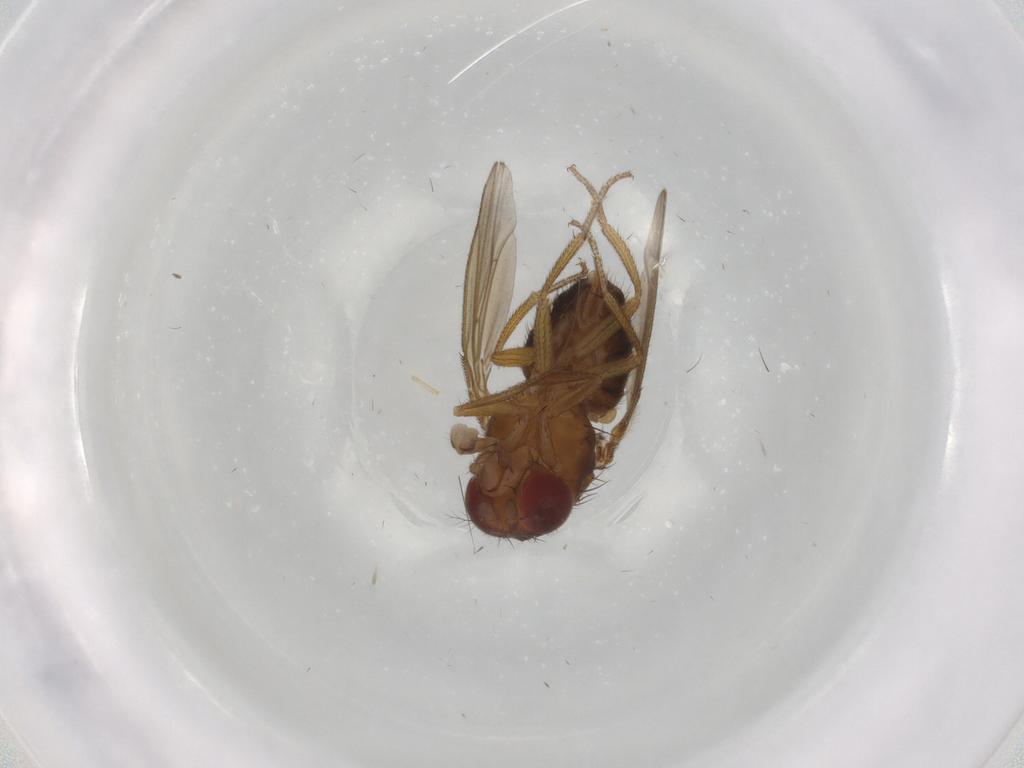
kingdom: Animalia
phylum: Arthropoda
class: Insecta
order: Diptera
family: Drosophilidae
